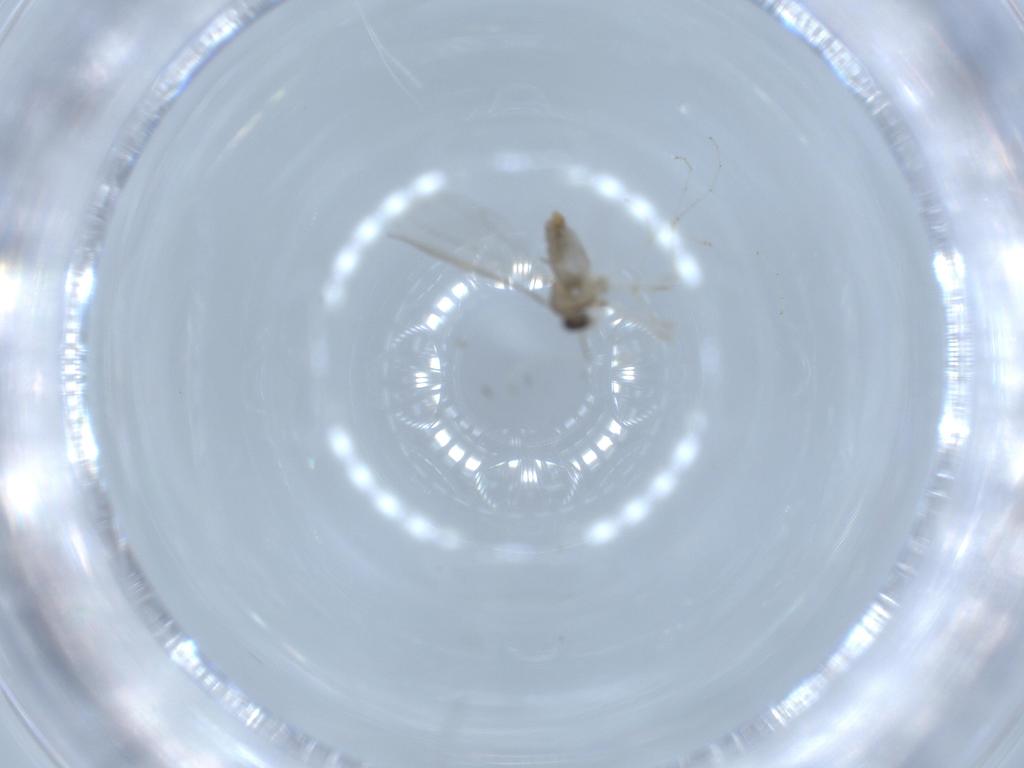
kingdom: Animalia
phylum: Arthropoda
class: Insecta
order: Diptera
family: Cecidomyiidae
